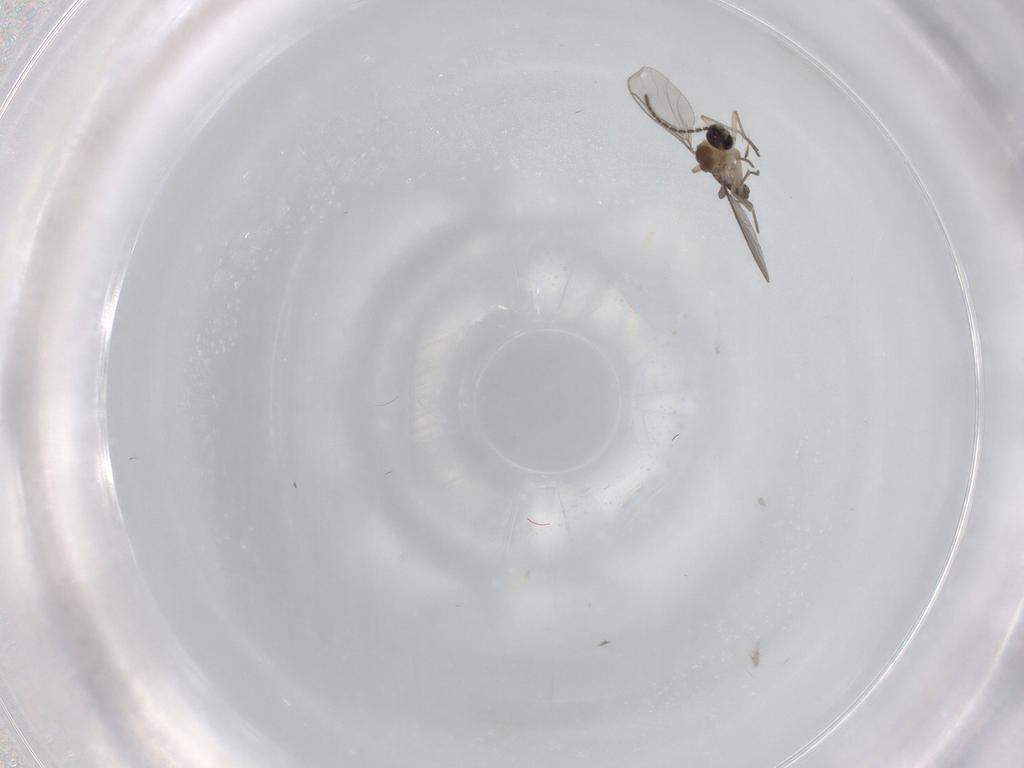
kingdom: Animalia
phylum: Arthropoda
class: Insecta
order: Diptera
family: Sciaridae
